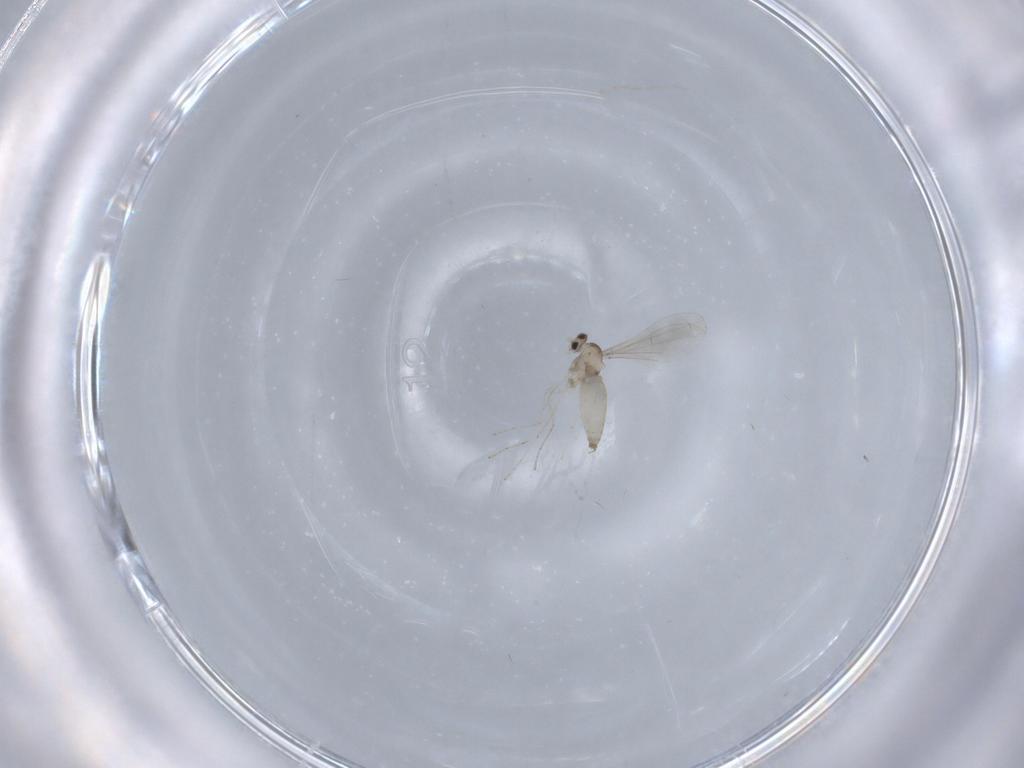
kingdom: Animalia
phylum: Arthropoda
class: Insecta
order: Diptera
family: Cecidomyiidae
